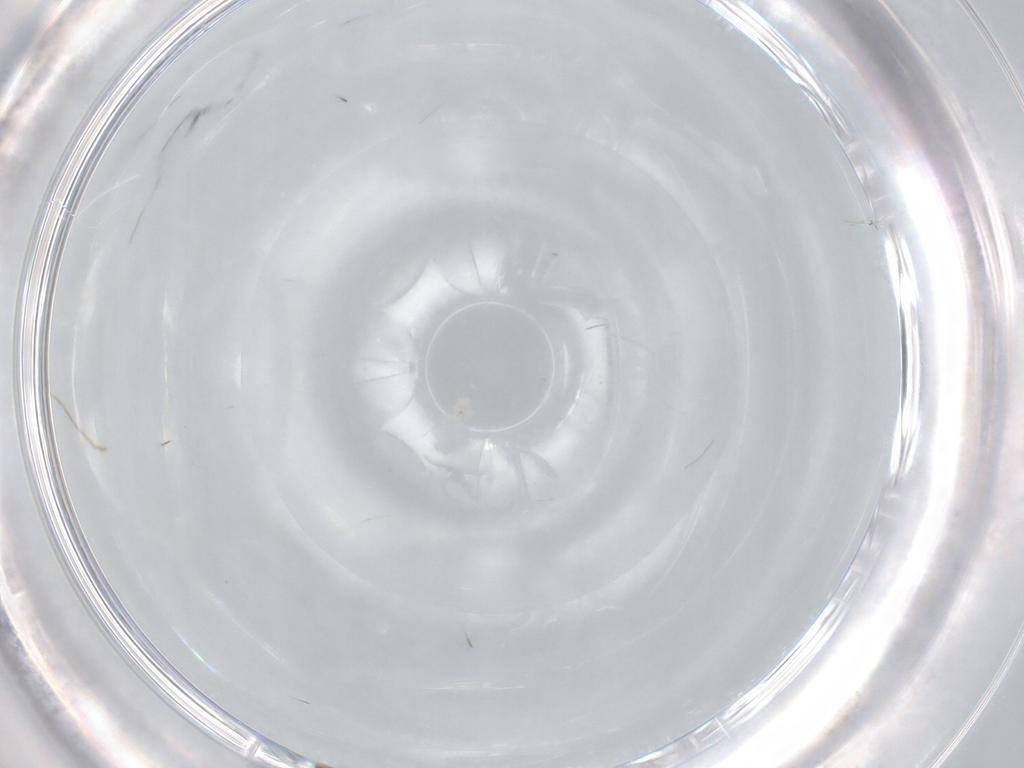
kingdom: Animalia
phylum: Arthropoda
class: Insecta
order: Diptera
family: Cecidomyiidae
